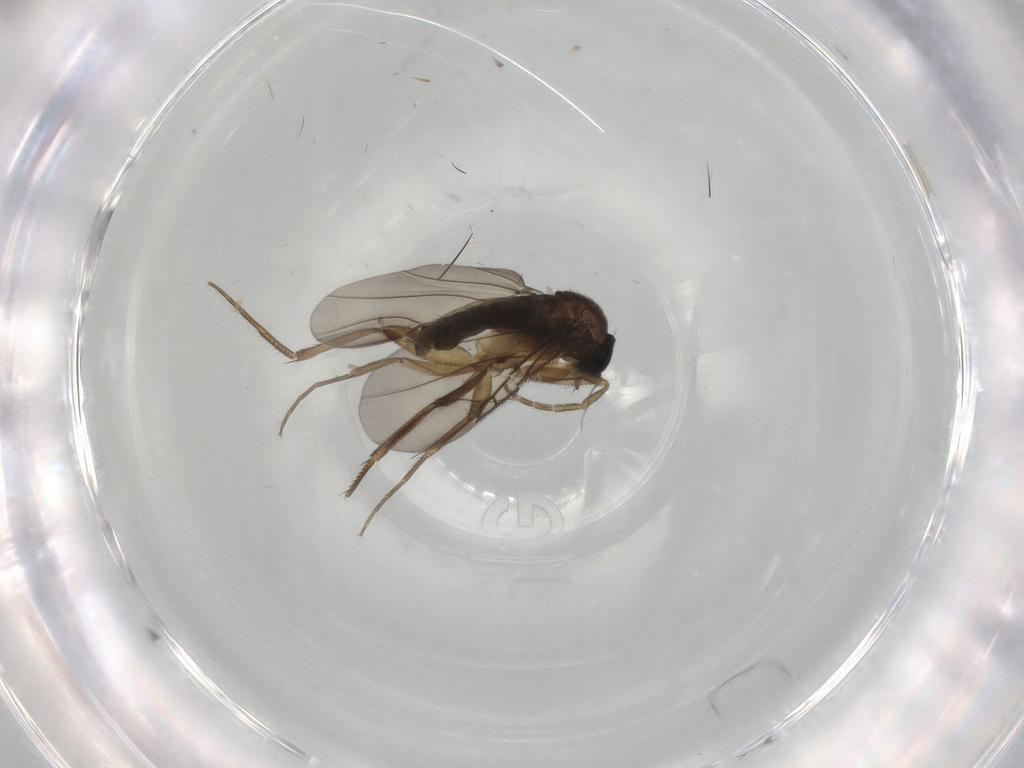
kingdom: Animalia
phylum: Arthropoda
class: Insecta
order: Diptera
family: Phoridae
